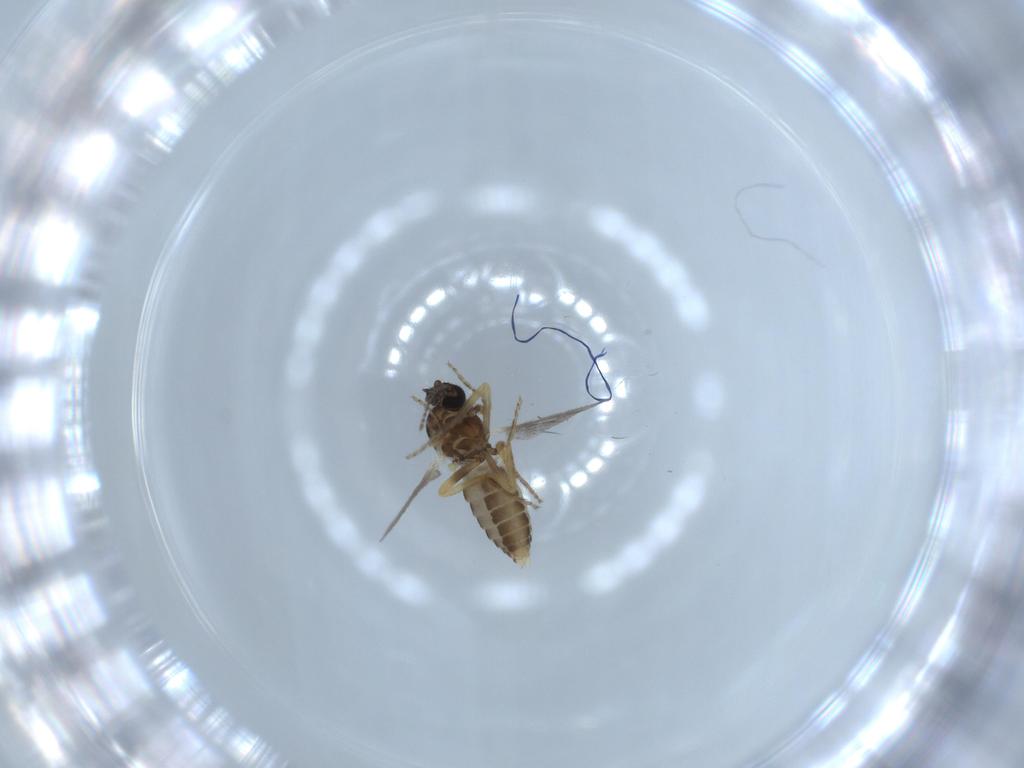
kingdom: Animalia
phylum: Arthropoda
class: Insecta
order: Diptera
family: Ceratopogonidae
